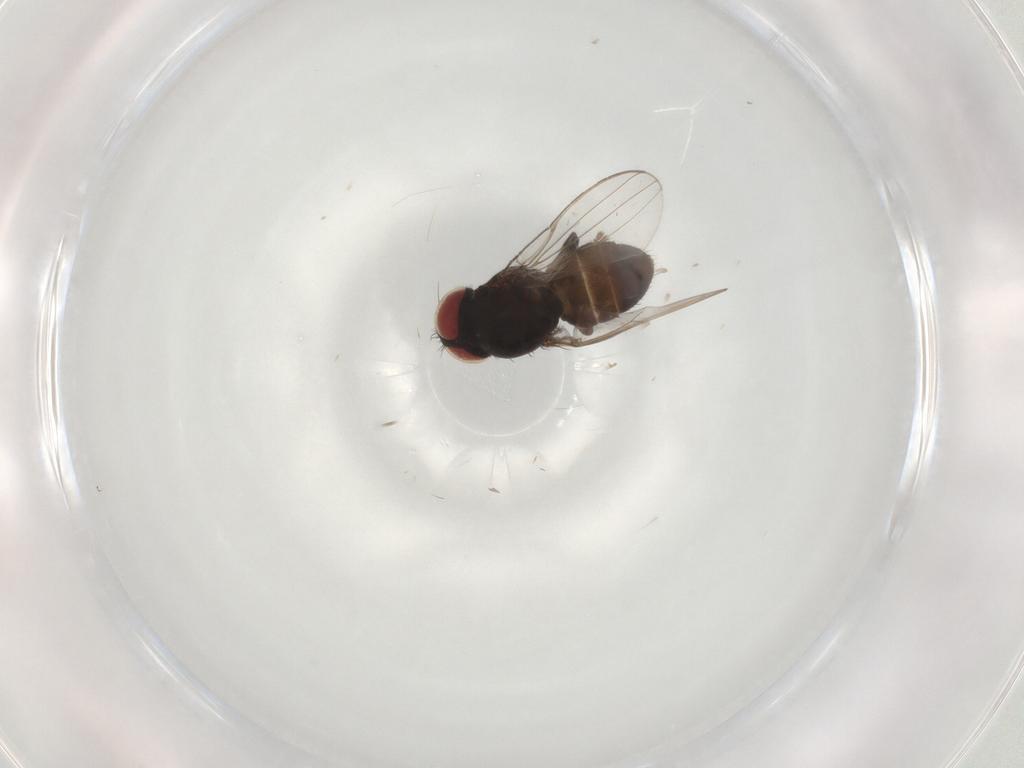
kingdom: Animalia
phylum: Arthropoda
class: Insecta
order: Diptera
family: Milichiidae
